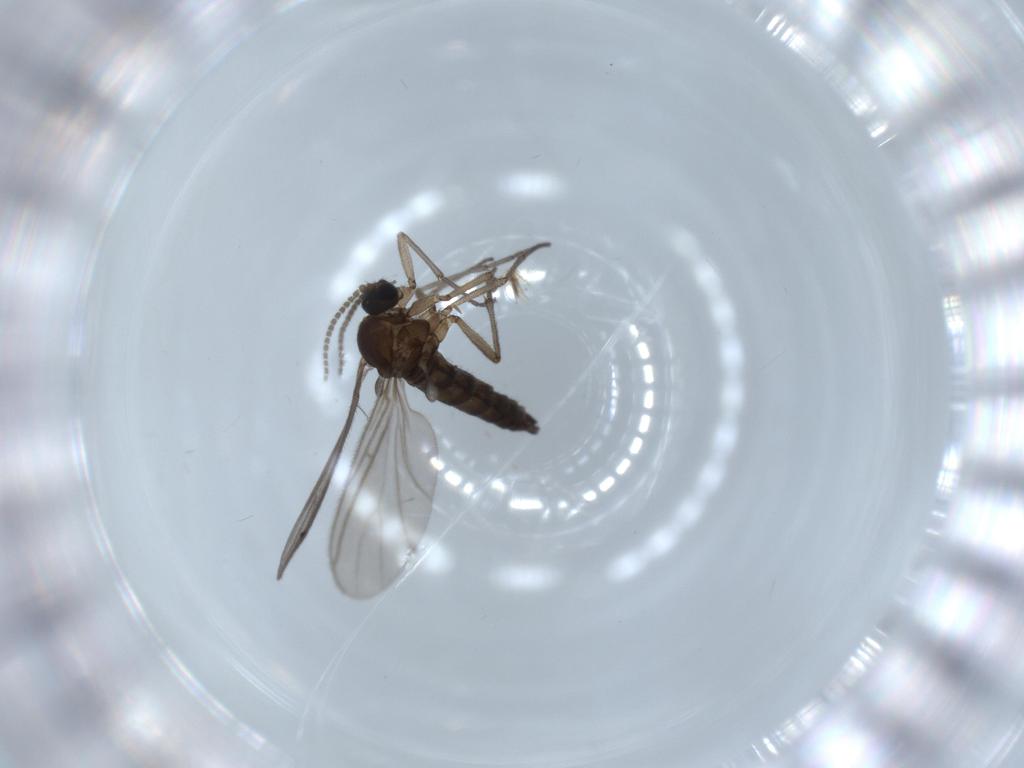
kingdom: Animalia
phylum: Arthropoda
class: Insecta
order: Diptera
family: Sciaridae
